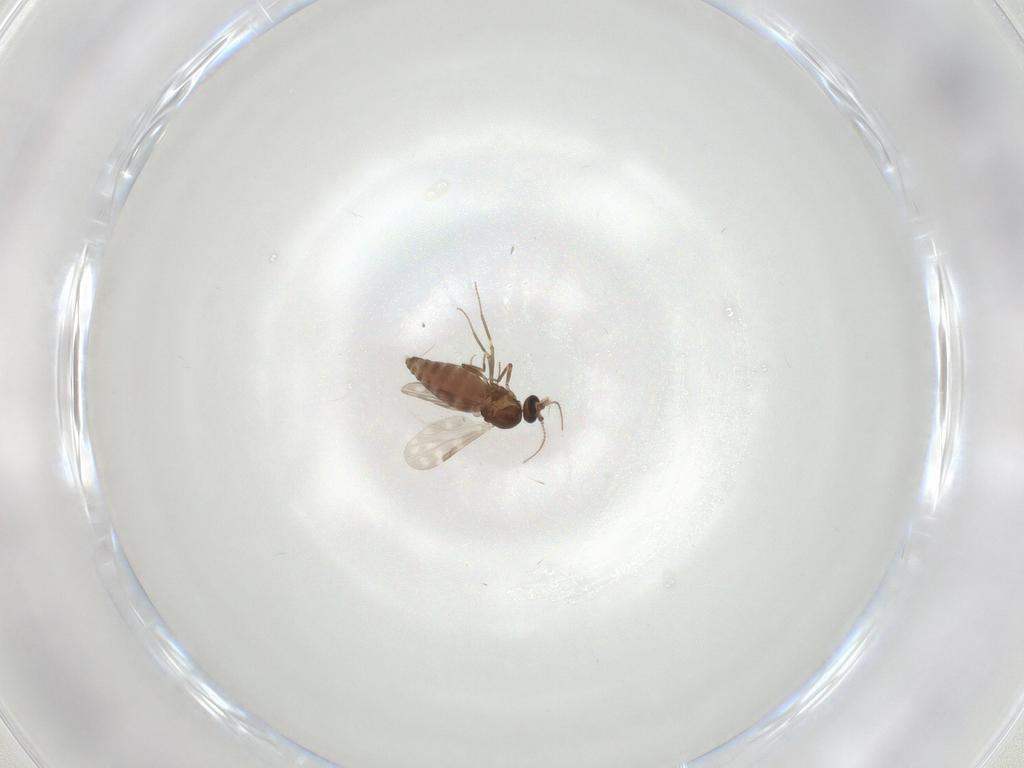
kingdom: Animalia
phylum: Arthropoda
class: Insecta
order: Diptera
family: Ceratopogonidae
